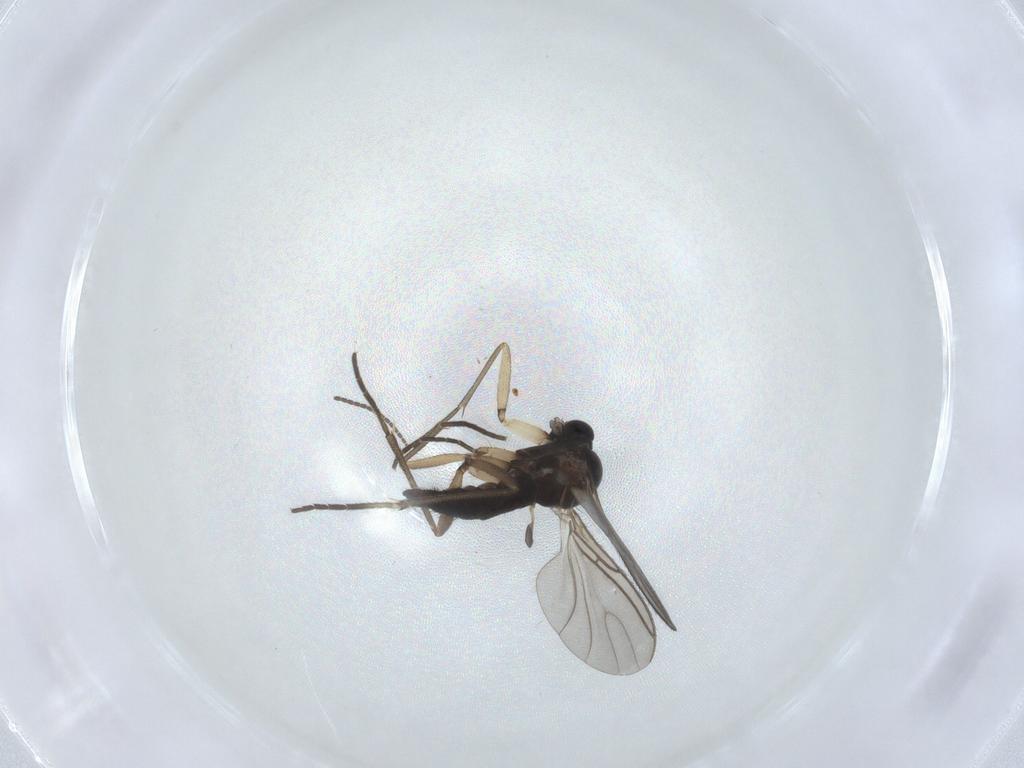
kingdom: Animalia
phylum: Arthropoda
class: Insecta
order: Diptera
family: Sciaridae
